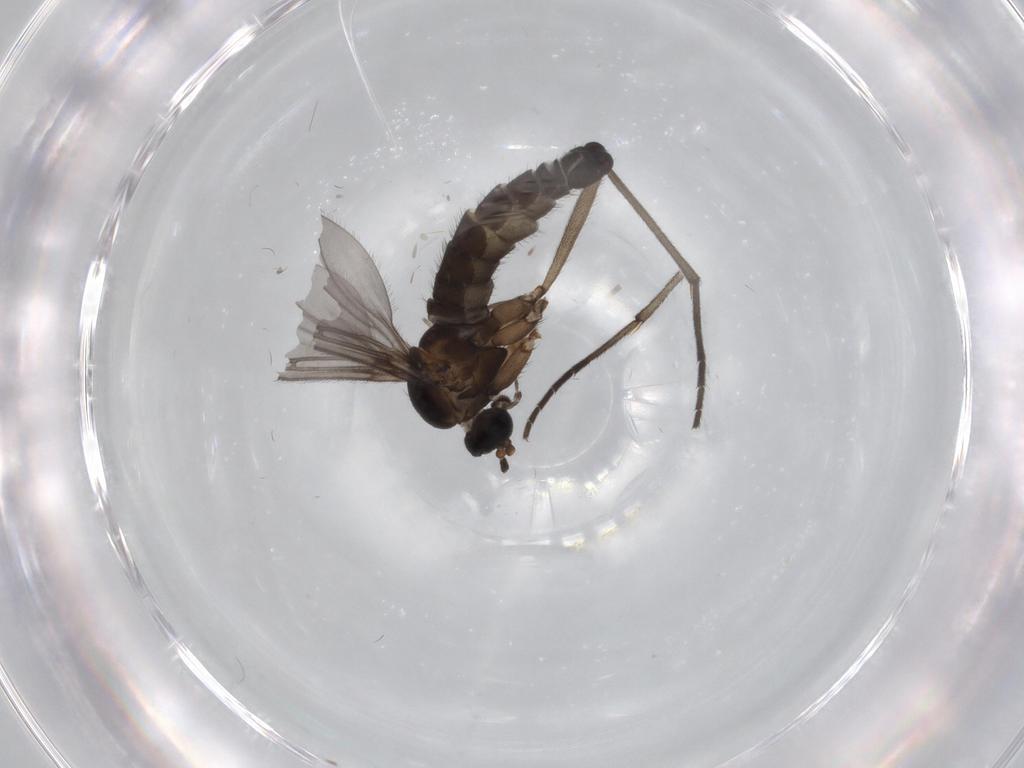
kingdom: Animalia
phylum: Arthropoda
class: Insecta
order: Diptera
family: Sciaridae
